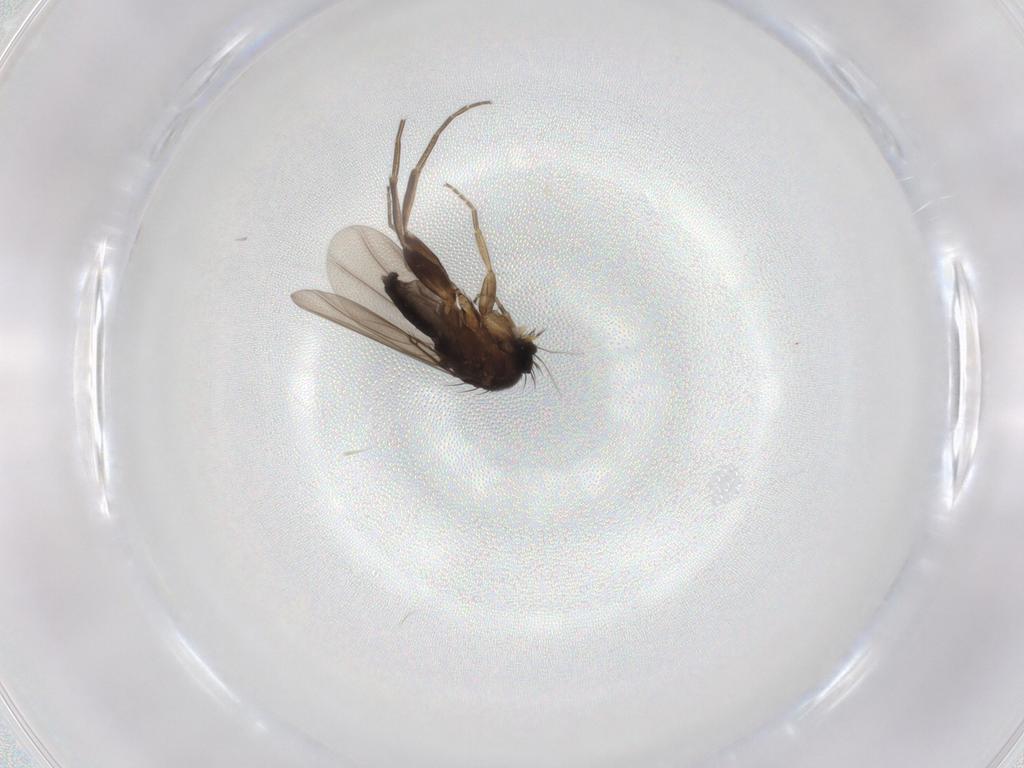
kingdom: Animalia
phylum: Arthropoda
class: Insecta
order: Diptera
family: Phoridae
